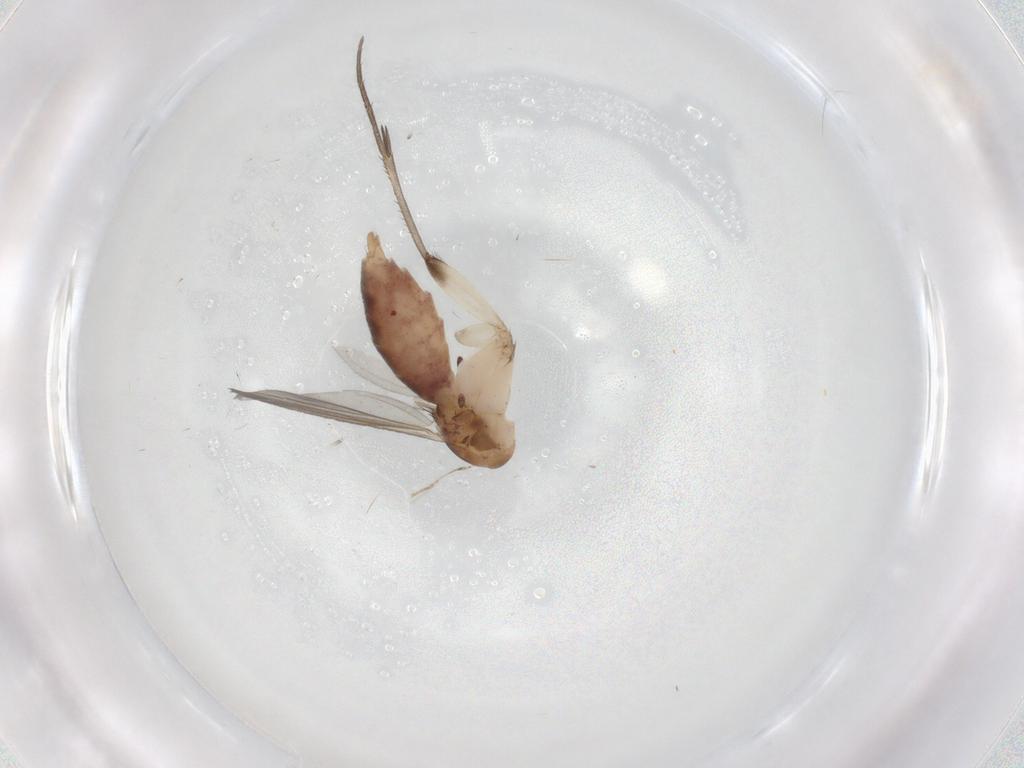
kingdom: Animalia
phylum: Arthropoda
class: Insecta
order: Diptera
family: Mycetophilidae
